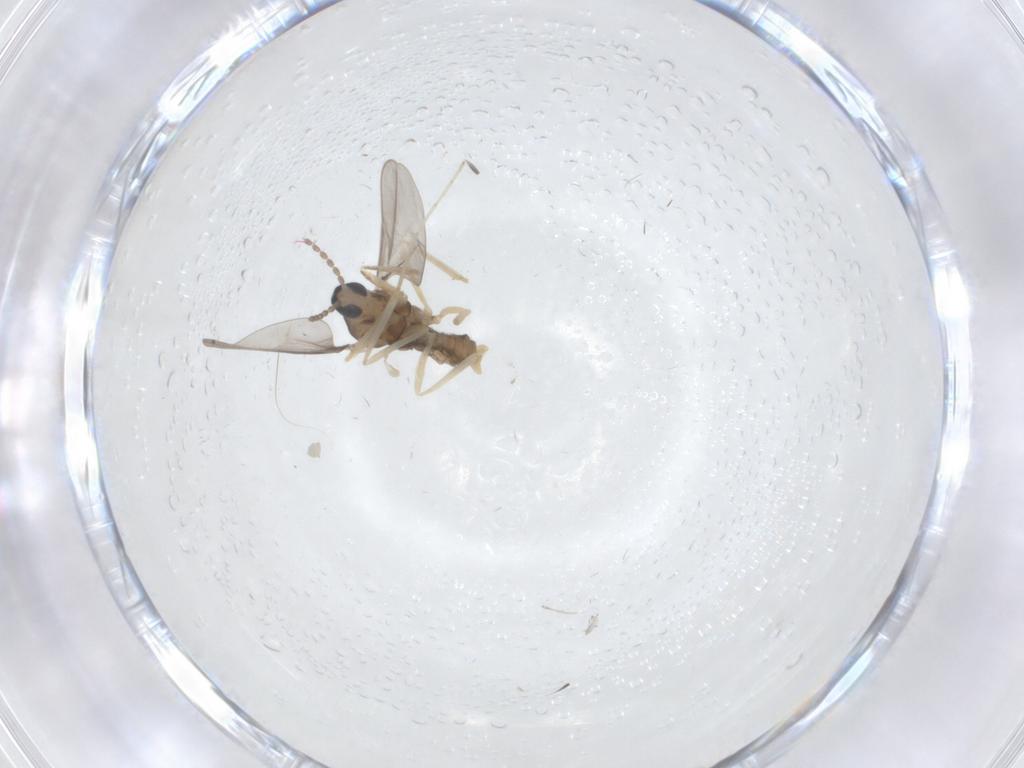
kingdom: Animalia
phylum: Arthropoda
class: Insecta
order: Diptera
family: Cecidomyiidae
